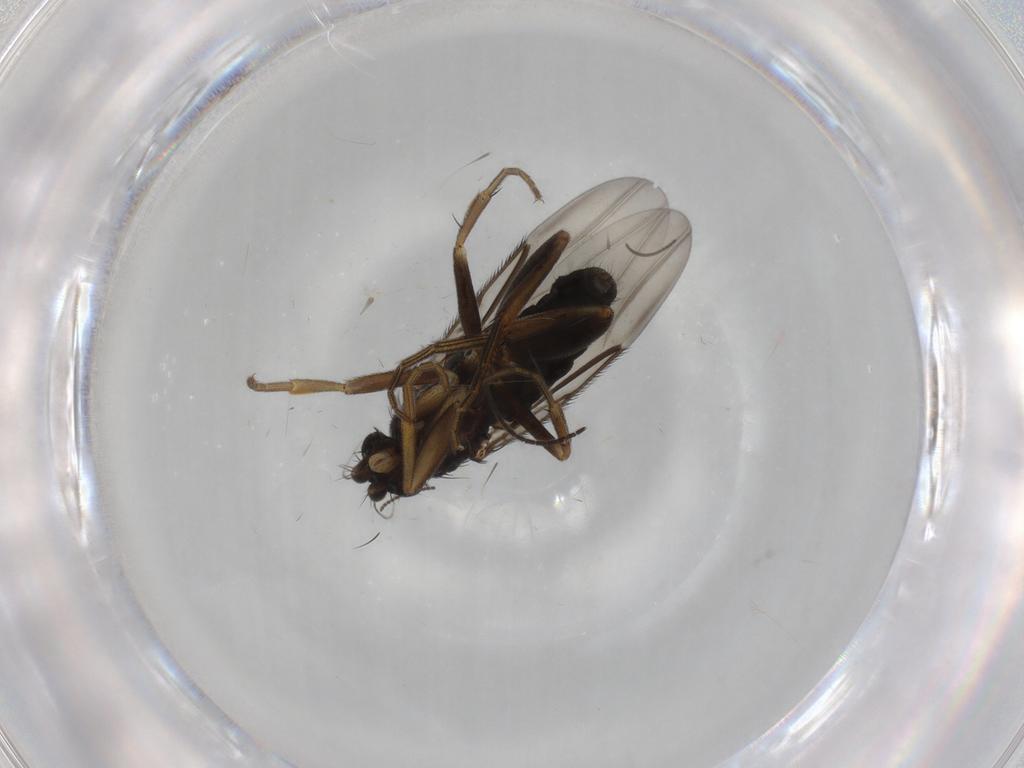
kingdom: Animalia
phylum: Arthropoda
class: Insecta
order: Diptera
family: Phoridae
